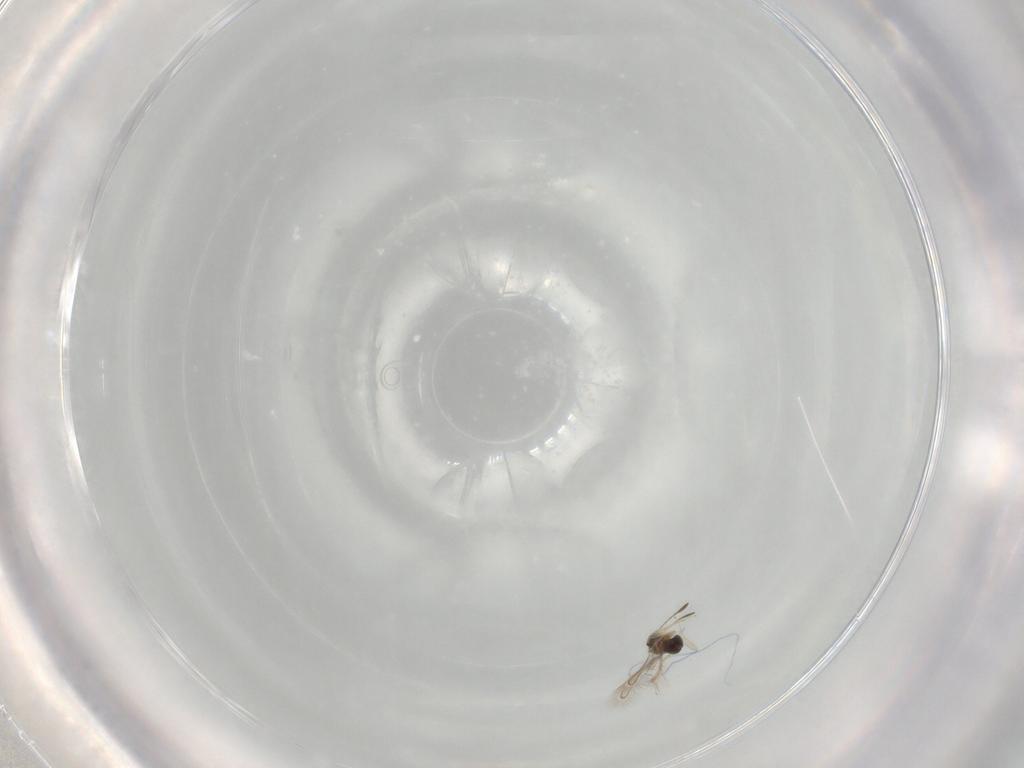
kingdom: Animalia
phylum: Arthropoda
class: Insecta
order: Hymenoptera
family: Dryinidae
